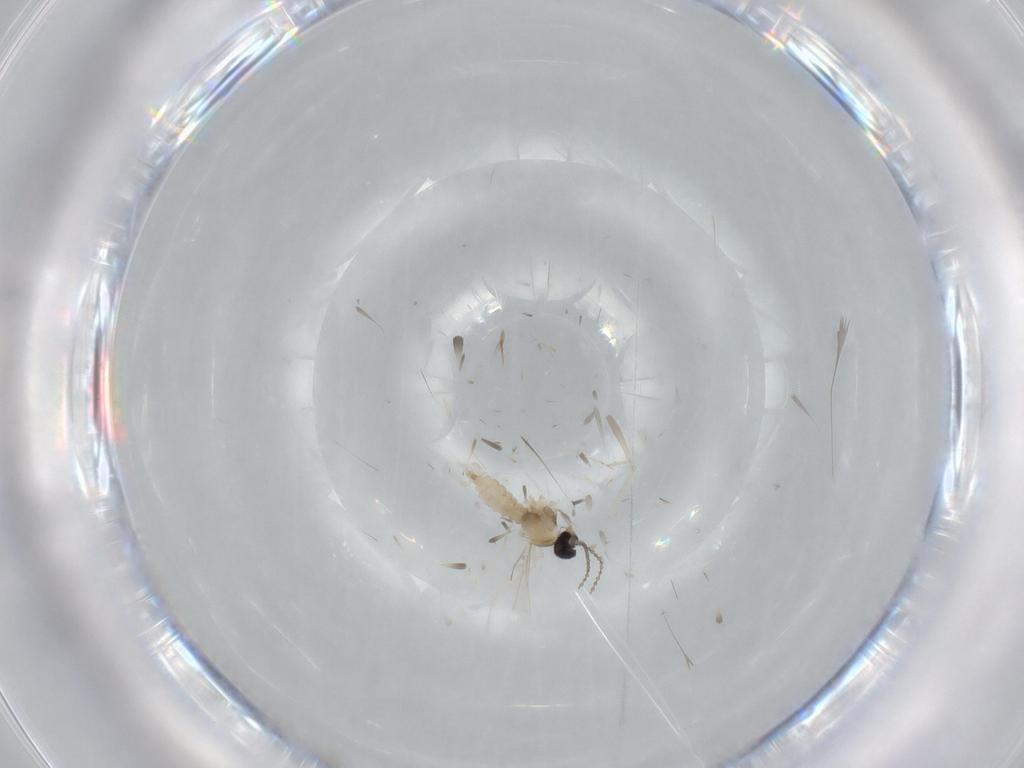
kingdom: Animalia
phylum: Arthropoda
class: Insecta
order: Diptera
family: Cecidomyiidae
